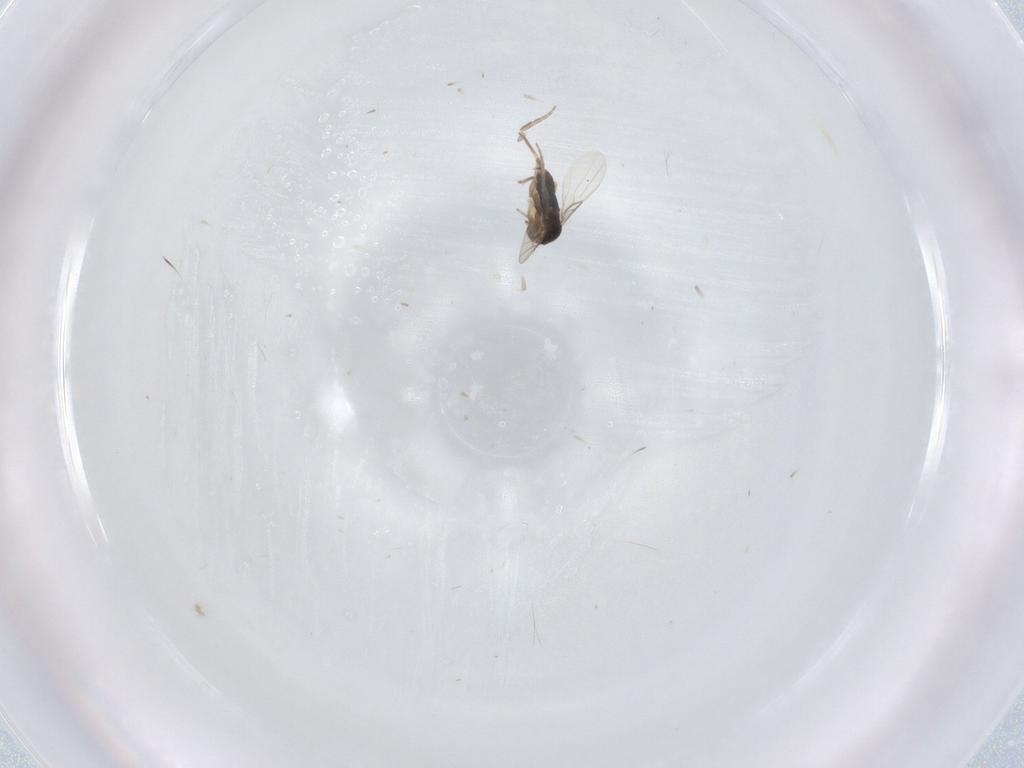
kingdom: Animalia
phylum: Arthropoda
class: Insecta
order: Diptera
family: Phoridae
